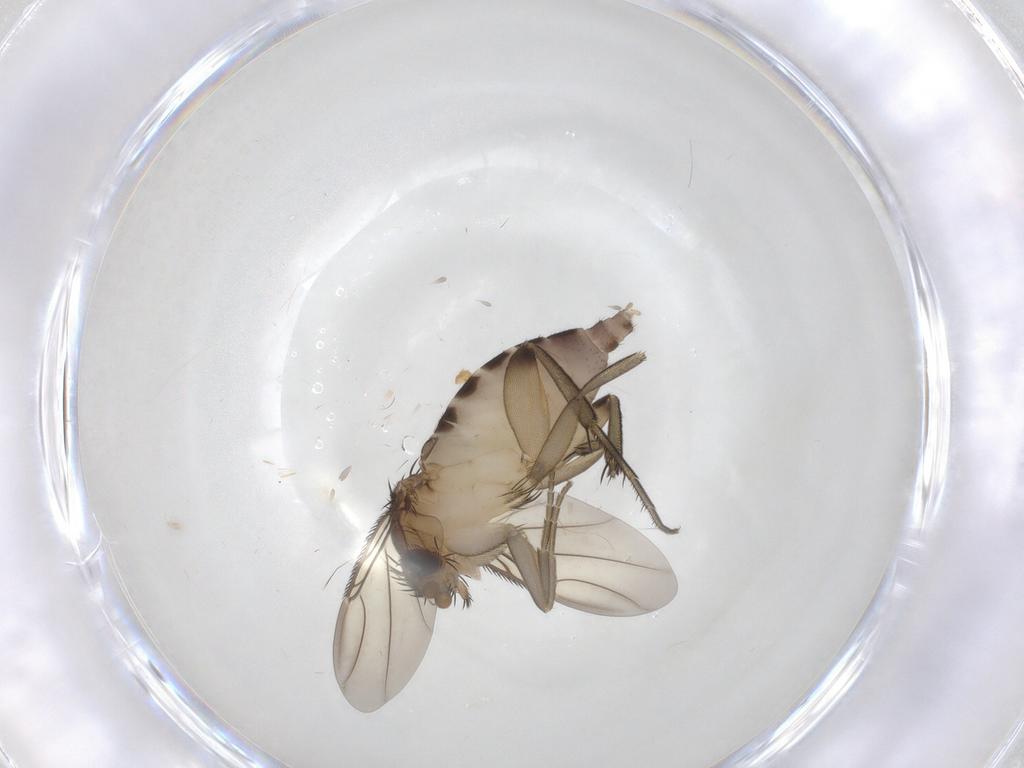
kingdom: Animalia
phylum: Arthropoda
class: Insecta
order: Diptera
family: Phoridae
